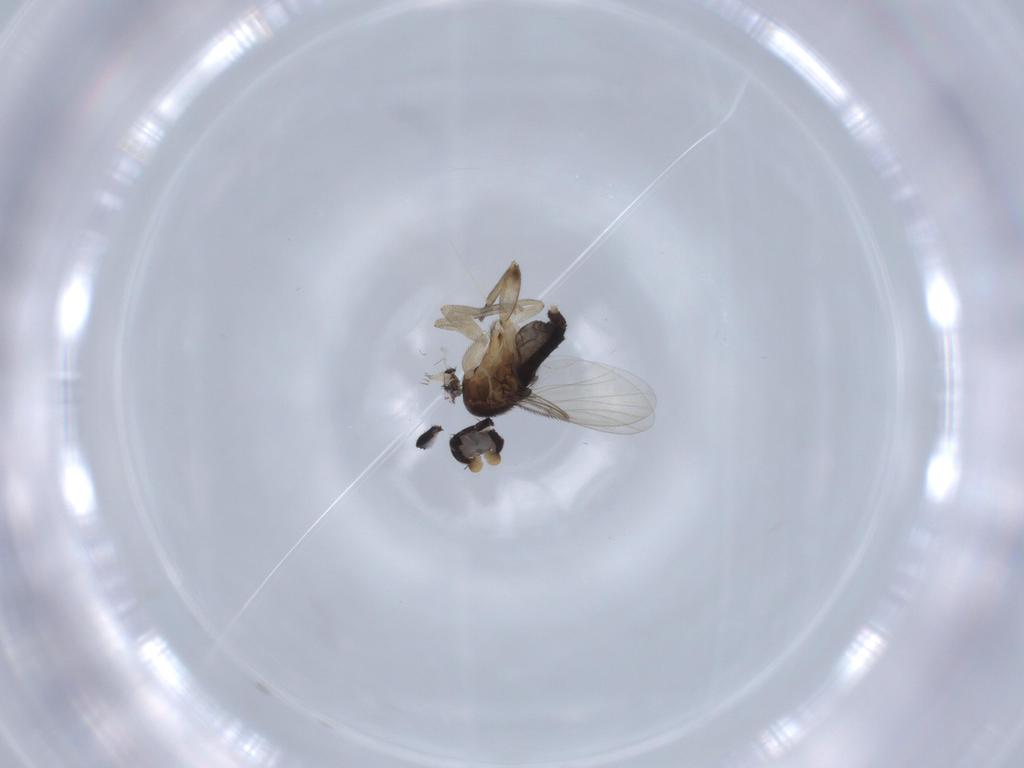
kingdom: Animalia
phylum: Arthropoda
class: Insecta
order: Diptera
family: Phoridae
